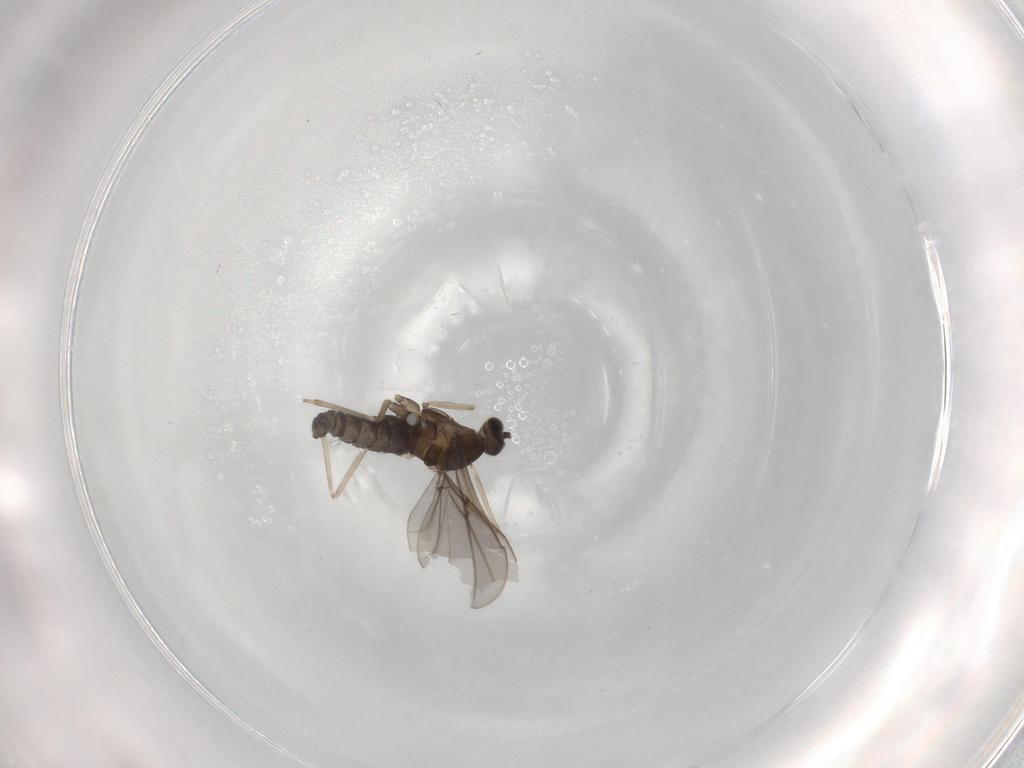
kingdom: Animalia
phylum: Arthropoda
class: Insecta
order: Diptera
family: Phoridae
